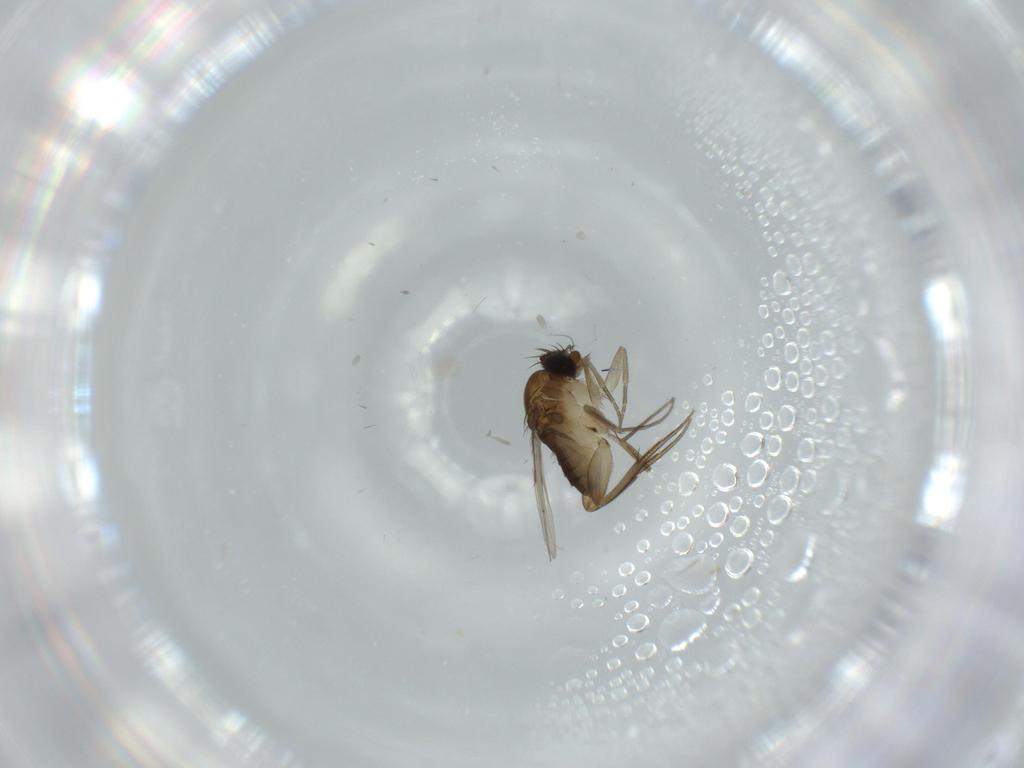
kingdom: Animalia
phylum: Arthropoda
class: Insecta
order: Diptera
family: Phoridae
